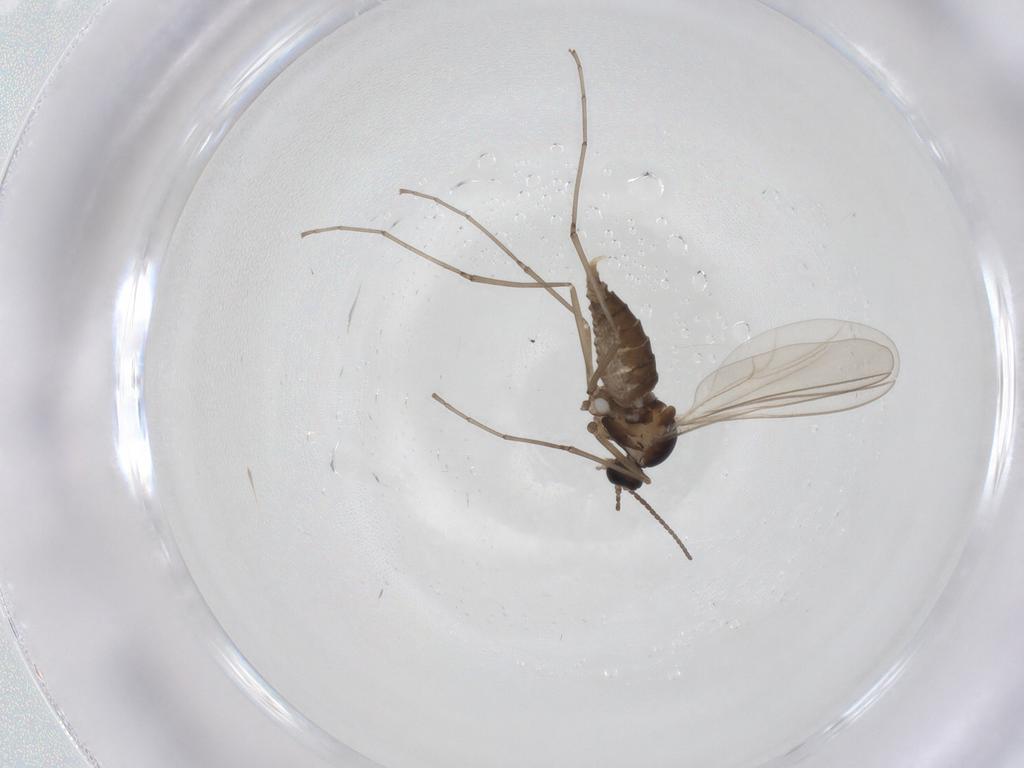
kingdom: Animalia
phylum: Arthropoda
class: Insecta
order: Diptera
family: Cecidomyiidae
